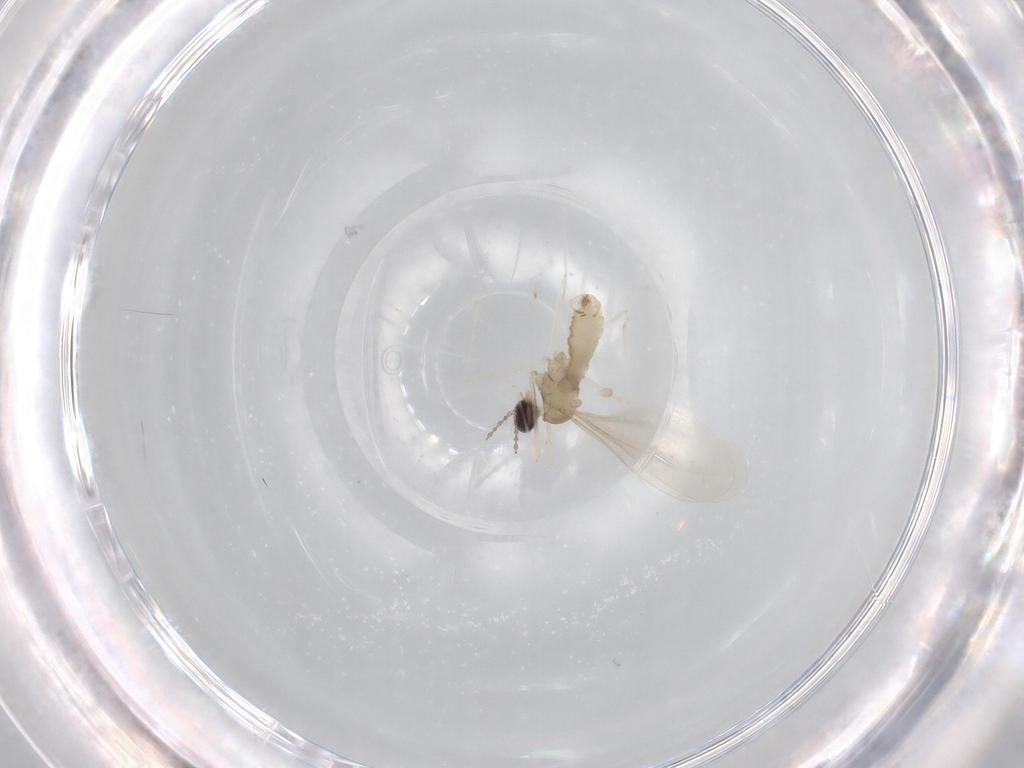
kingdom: Animalia
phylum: Arthropoda
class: Insecta
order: Diptera
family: Cecidomyiidae
